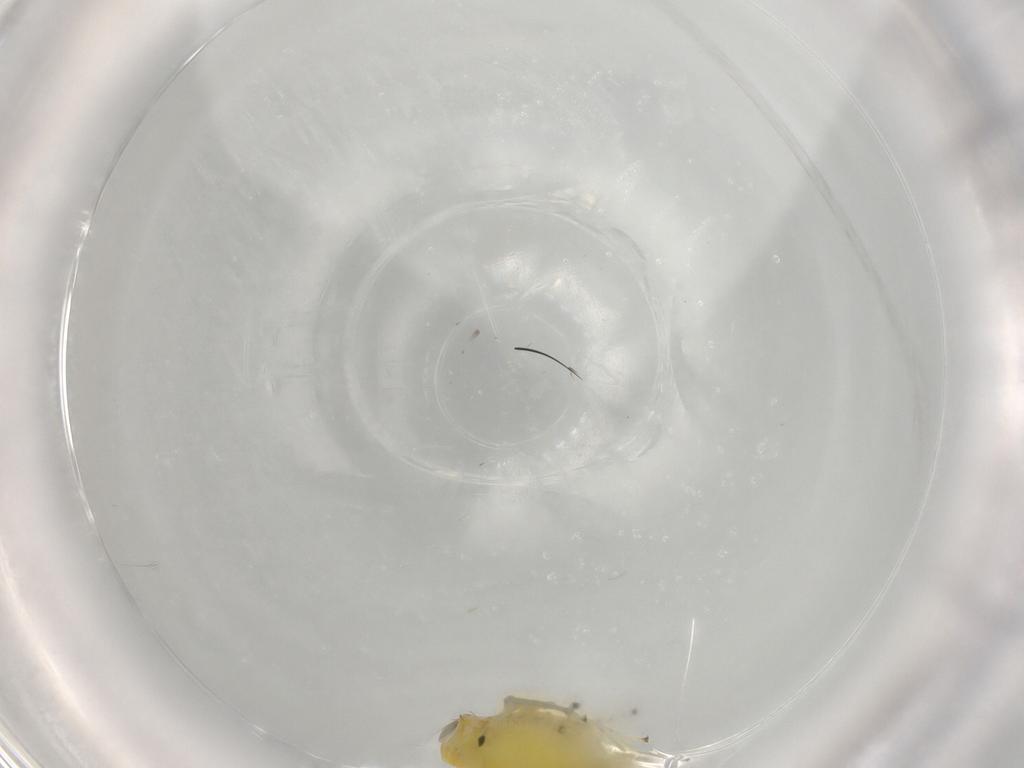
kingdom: Animalia
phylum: Arthropoda
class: Insecta
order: Hemiptera
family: Cicadellidae
